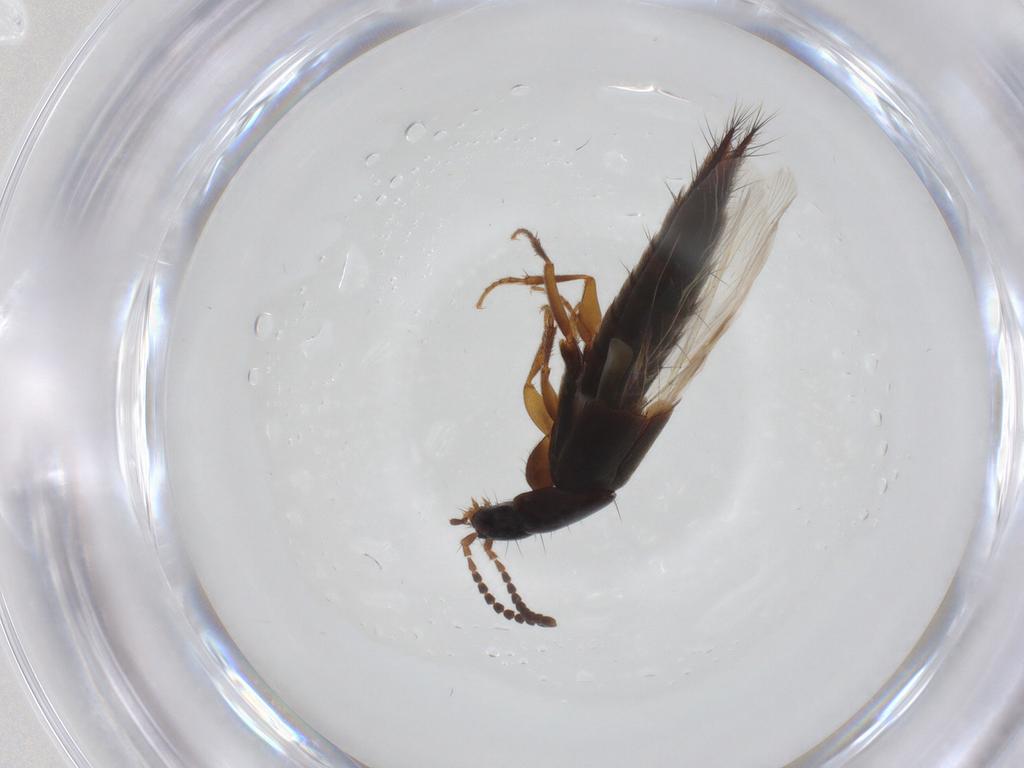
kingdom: Animalia
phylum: Arthropoda
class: Insecta
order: Coleoptera
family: Staphylinidae
